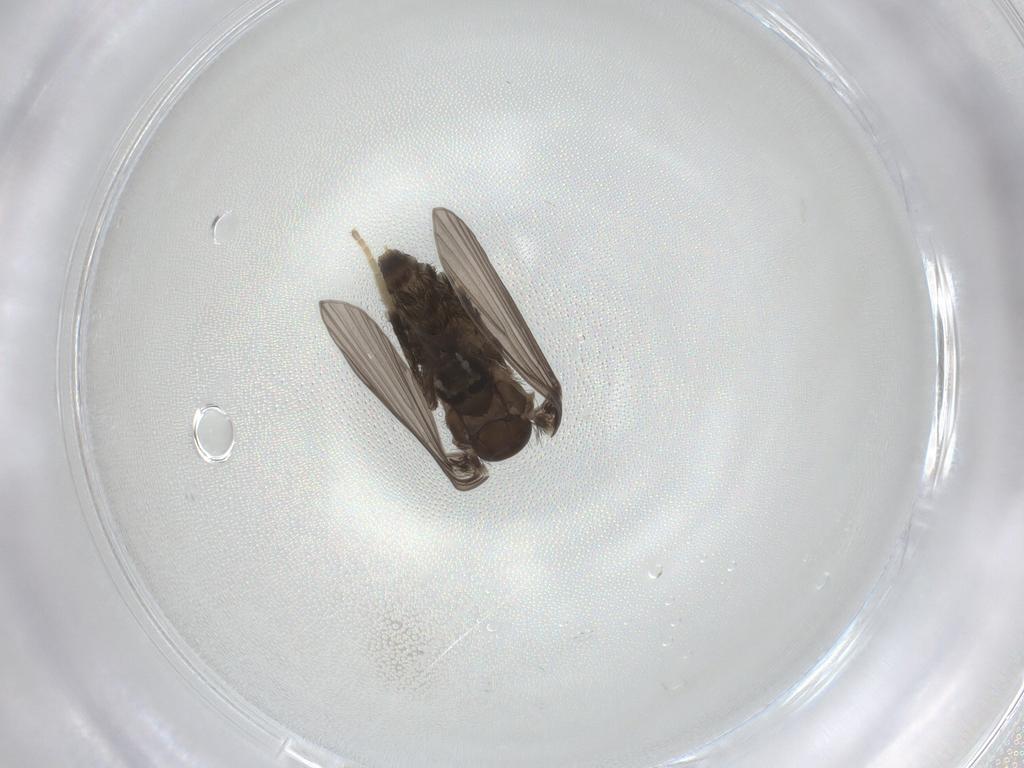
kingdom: Animalia
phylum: Arthropoda
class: Insecta
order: Diptera
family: Psychodidae
